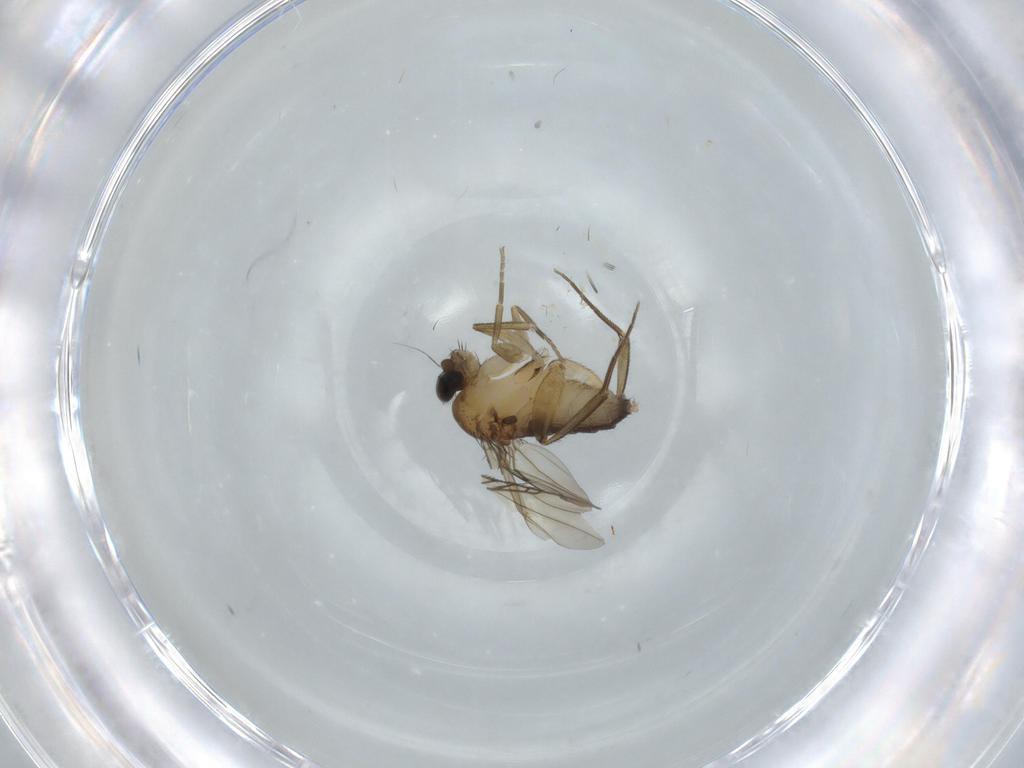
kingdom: Animalia
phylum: Arthropoda
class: Insecta
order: Diptera
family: Phoridae
